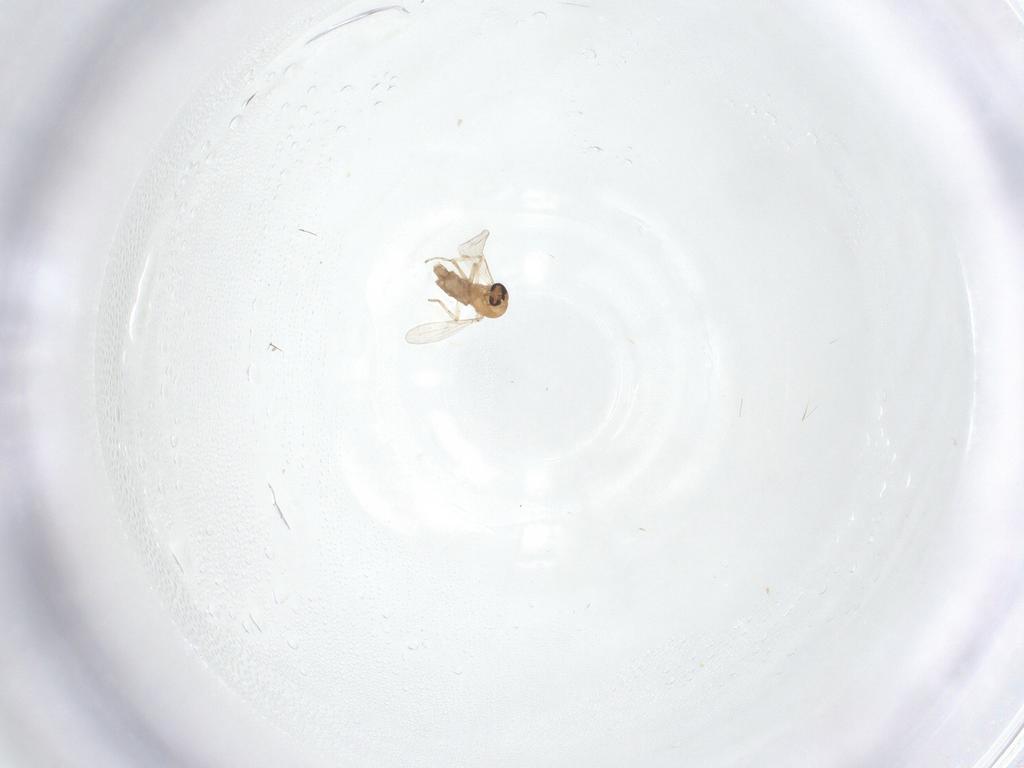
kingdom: Animalia
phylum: Arthropoda
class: Insecta
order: Diptera
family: Ceratopogonidae
